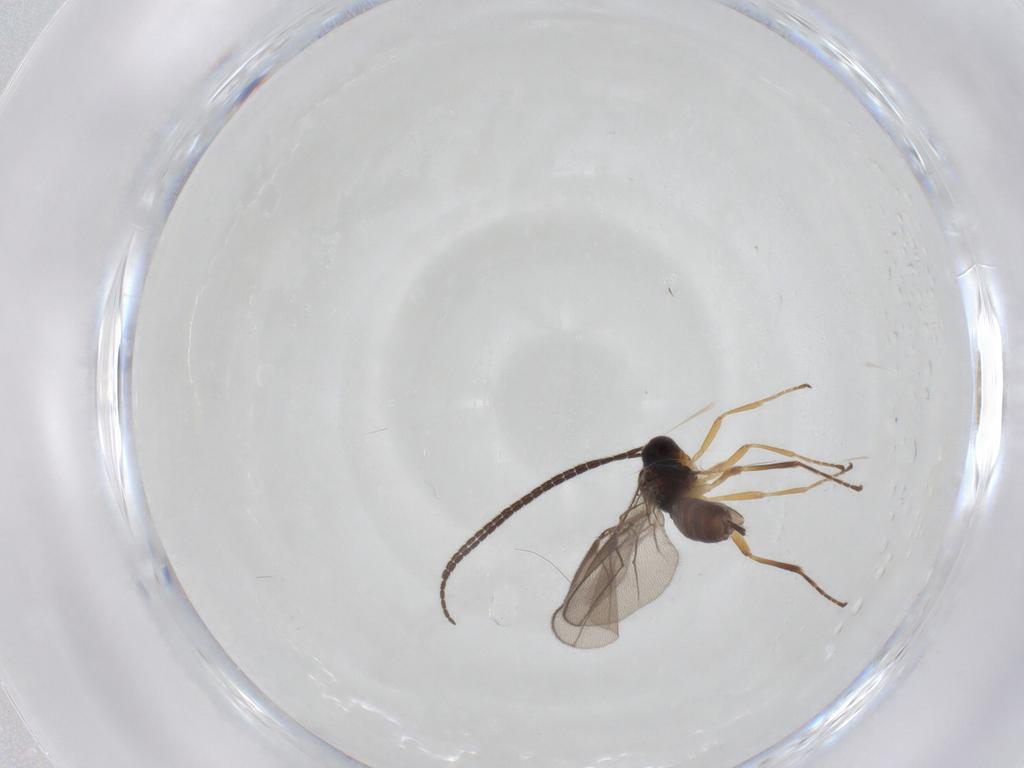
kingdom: Animalia
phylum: Arthropoda
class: Insecta
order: Hymenoptera
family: Braconidae
